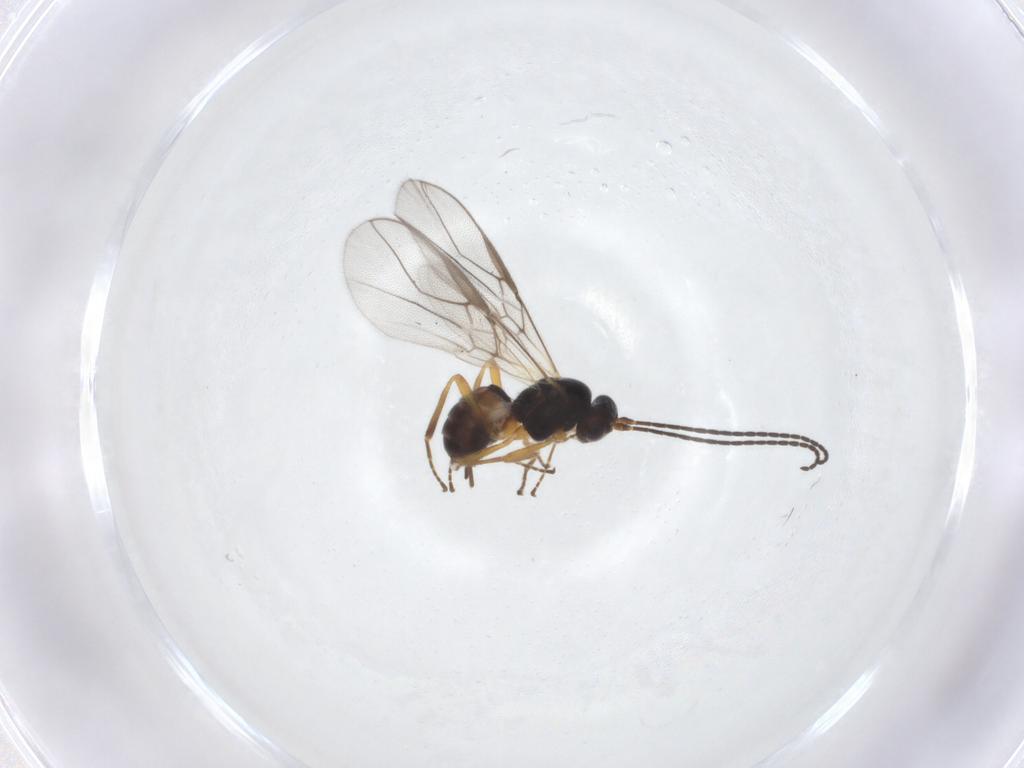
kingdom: Animalia
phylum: Arthropoda
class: Insecta
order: Hymenoptera
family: Braconidae
